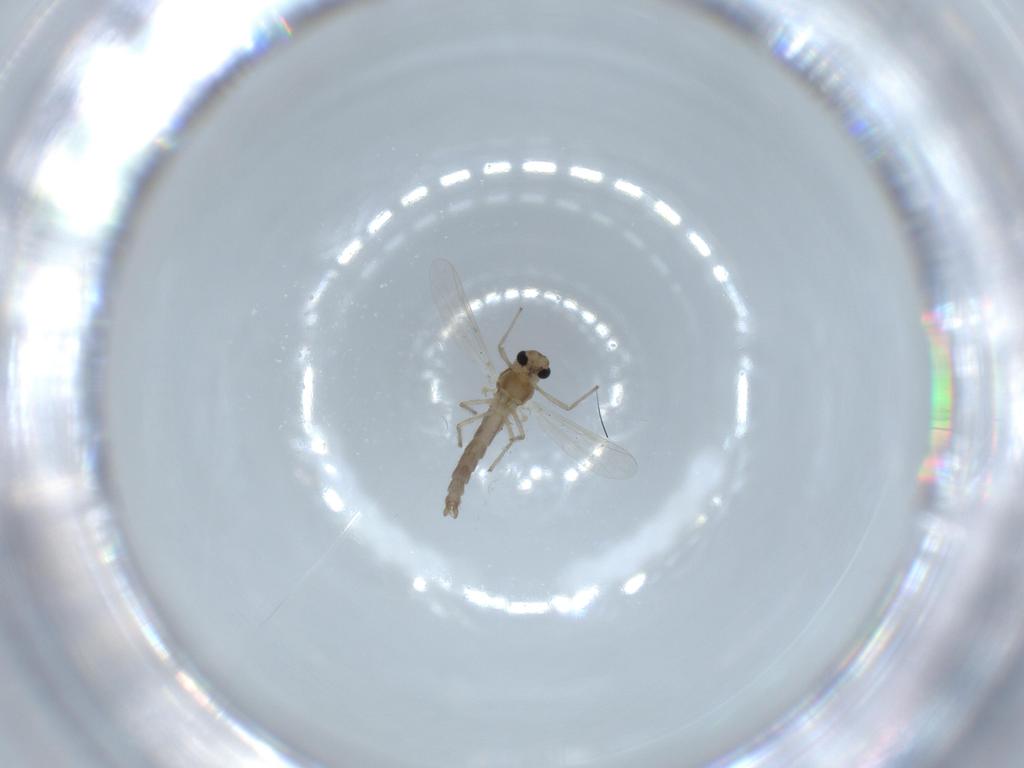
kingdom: Animalia
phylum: Arthropoda
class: Insecta
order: Diptera
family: Chironomidae
